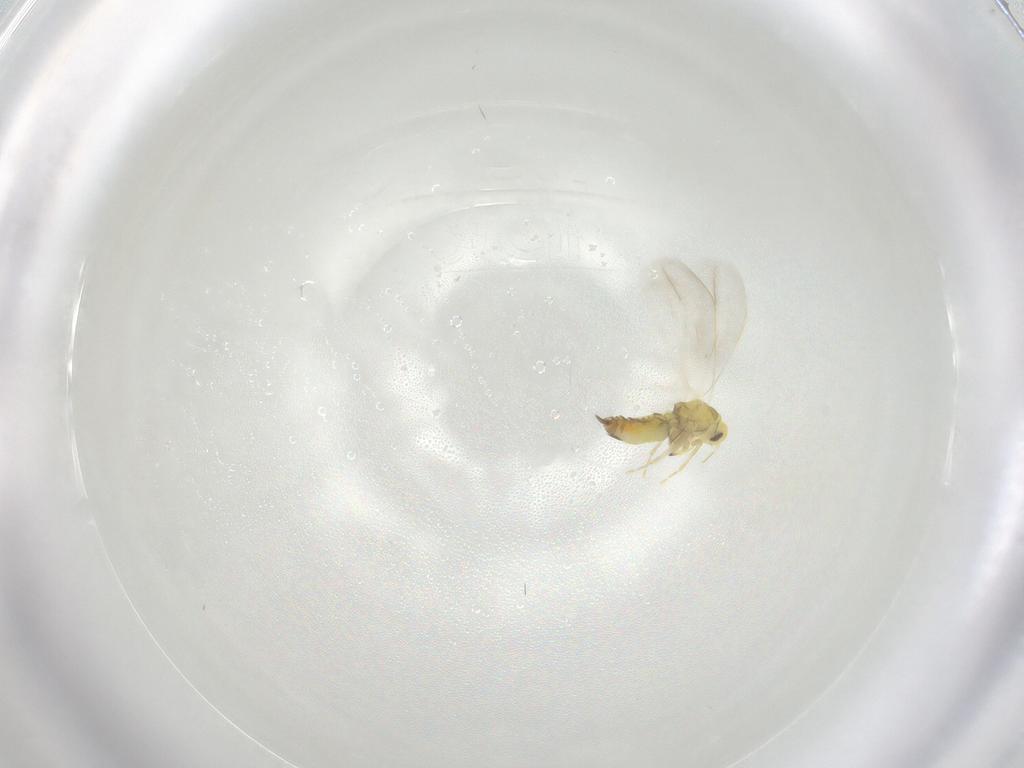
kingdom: Animalia
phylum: Arthropoda
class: Insecta
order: Hemiptera
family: Aleyrodidae
